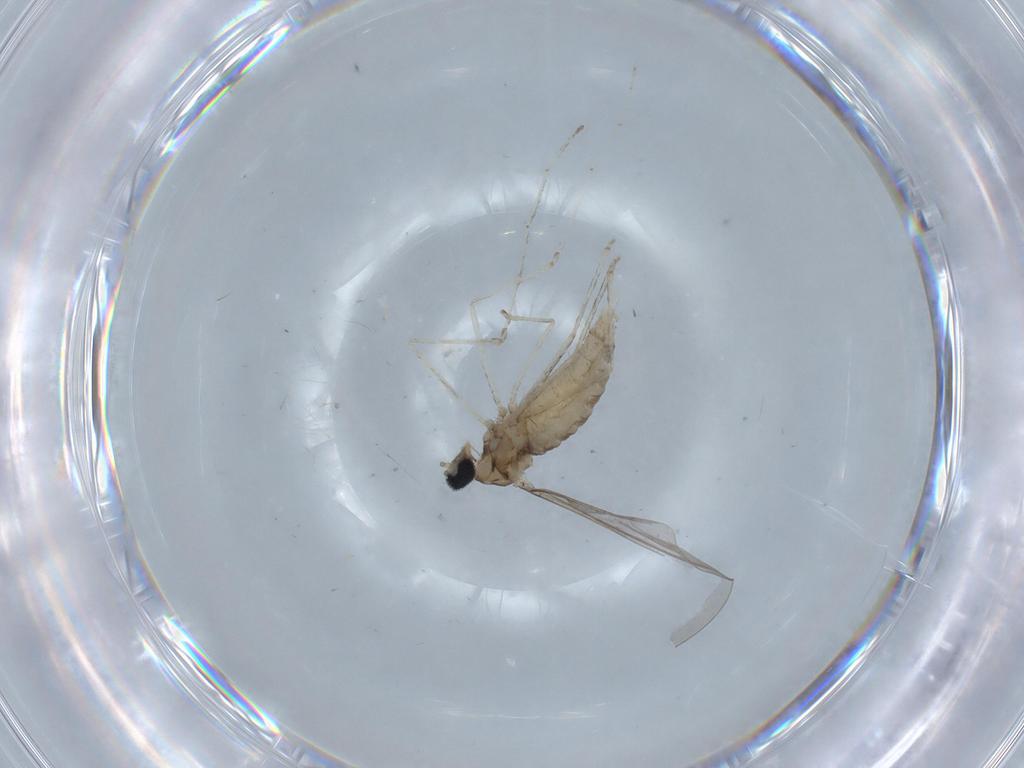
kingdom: Animalia
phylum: Arthropoda
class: Insecta
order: Diptera
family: Cecidomyiidae
